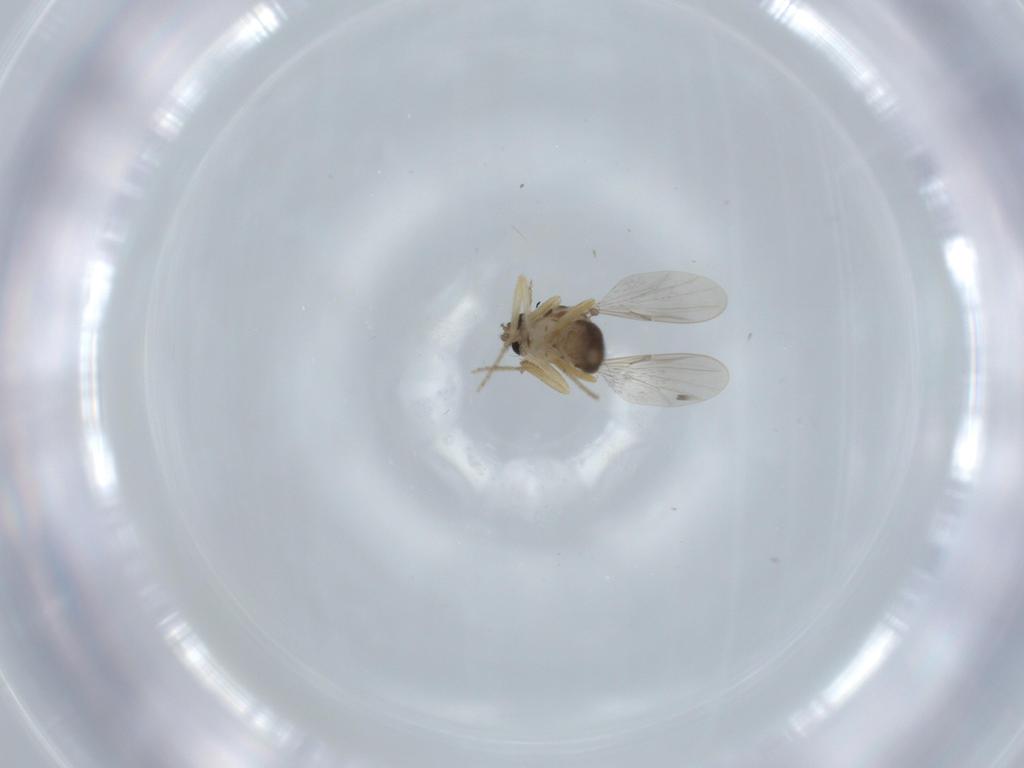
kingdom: Animalia
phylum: Arthropoda
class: Insecta
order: Diptera
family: Ceratopogonidae
